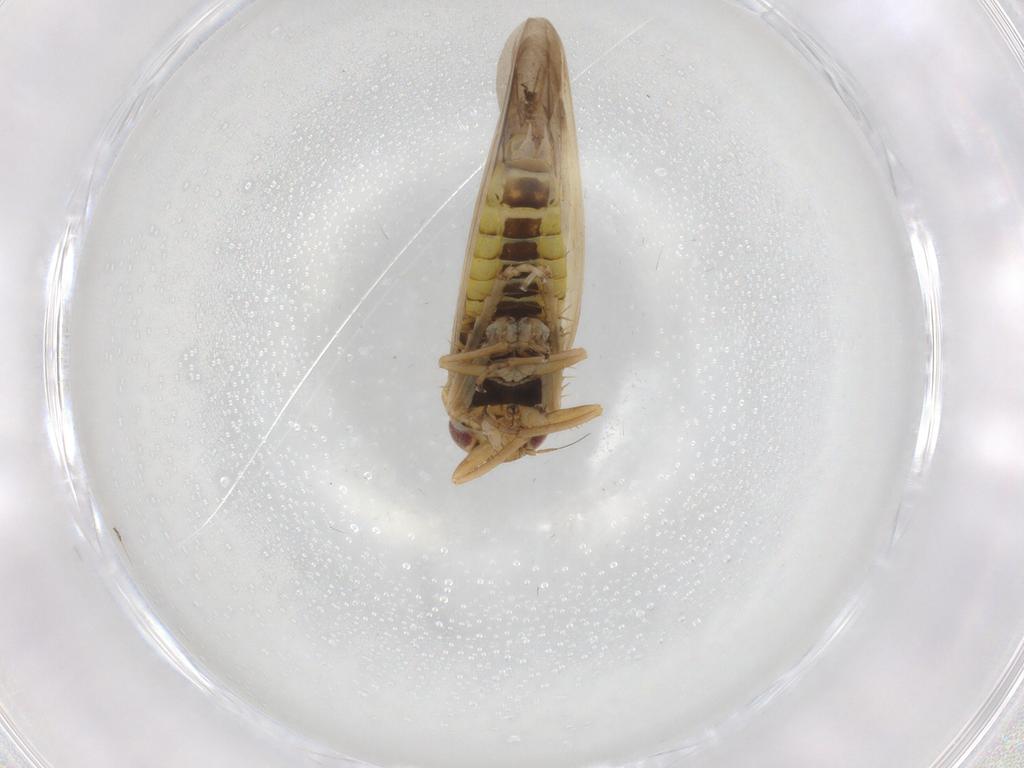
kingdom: Animalia
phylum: Arthropoda
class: Insecta
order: Hemiptera
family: Cicadellidae
